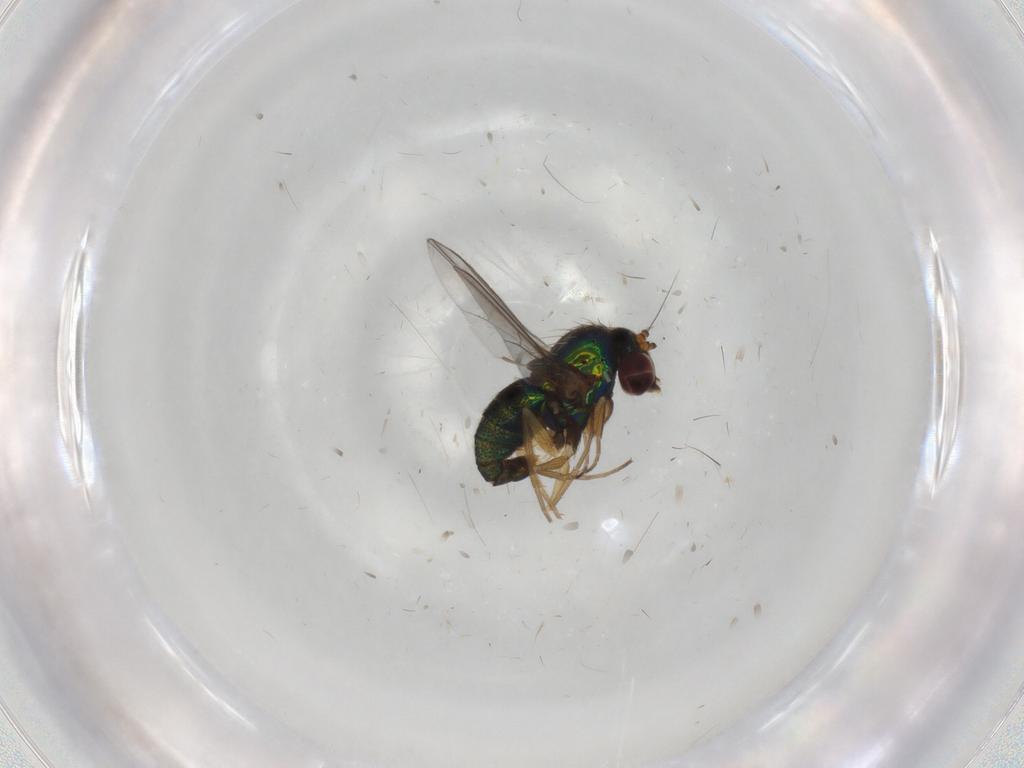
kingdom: Animalia
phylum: Arthropoda
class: Insecta
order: Diptera
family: Dolichopodidae
